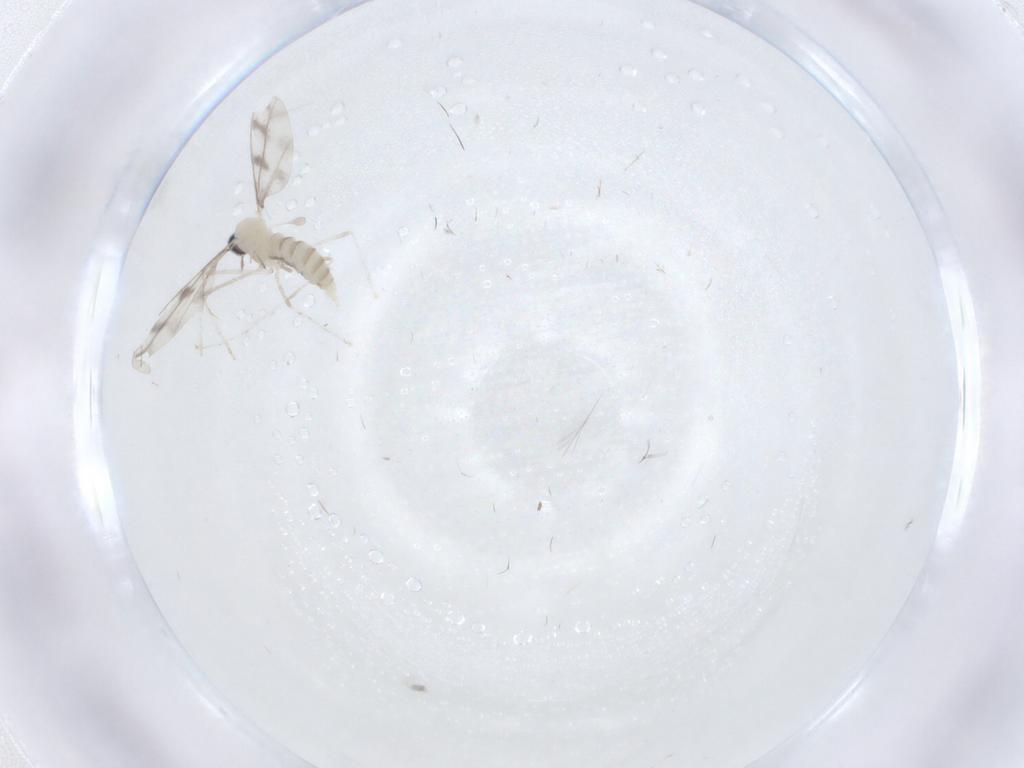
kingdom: Animalia
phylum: Arthropoda
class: Insecta
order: Diptera
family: Cecidomyiidae
